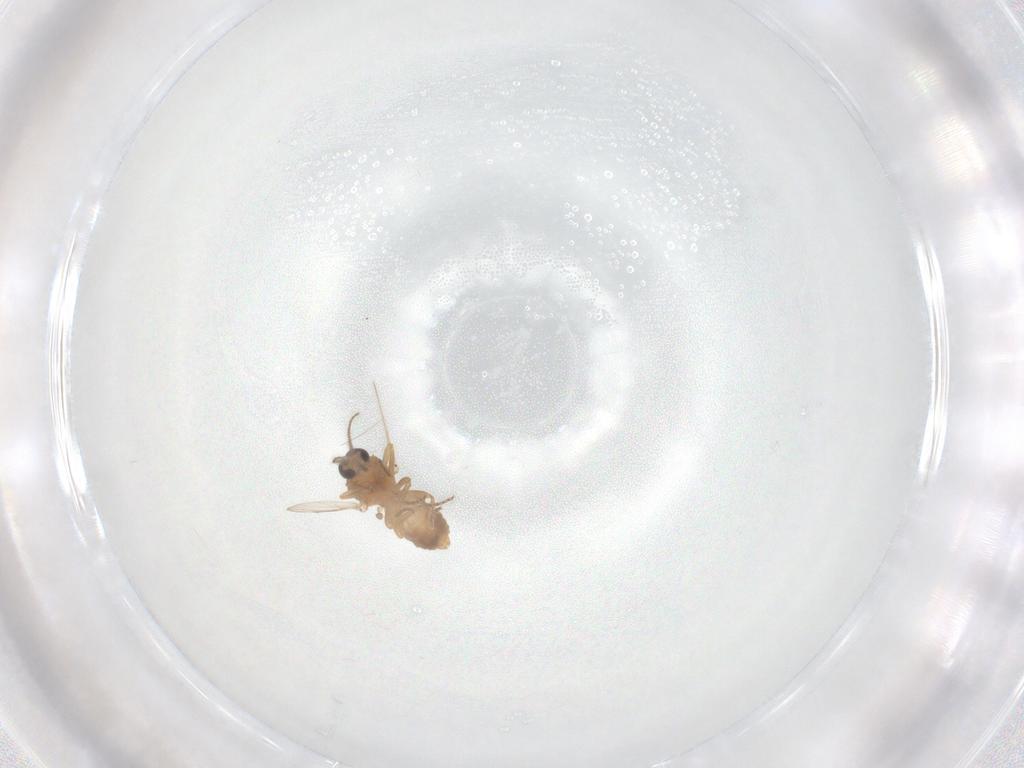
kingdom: Animalia
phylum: Arthropoda
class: Insecta
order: Diptera
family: Ceratopogonidae
